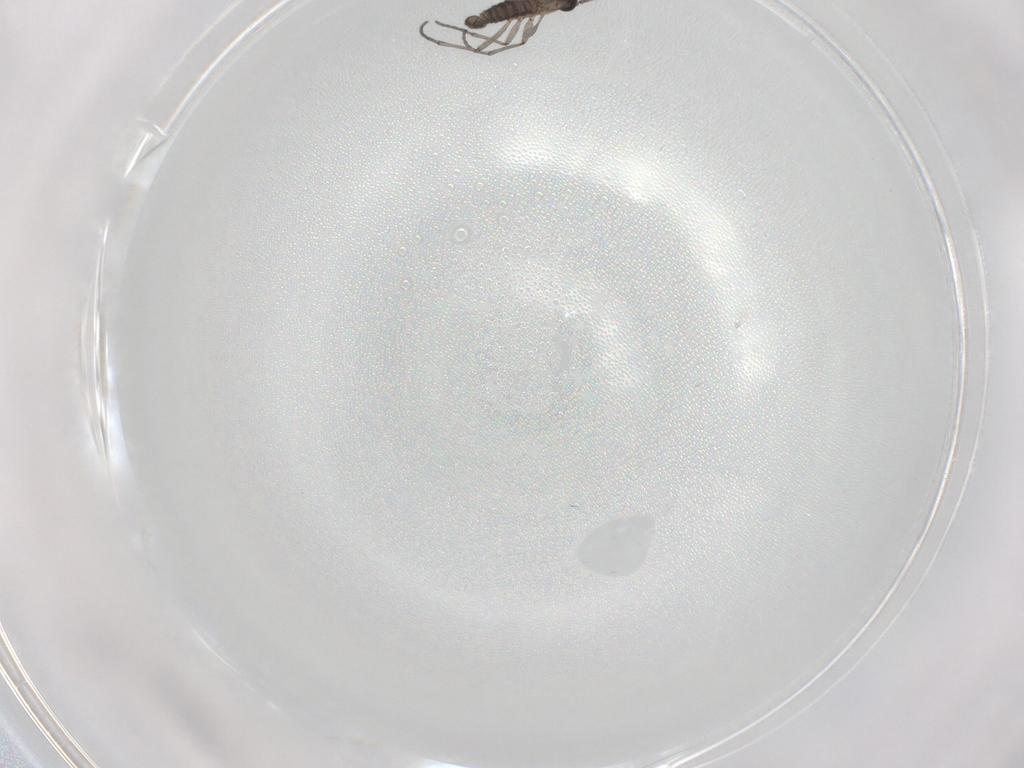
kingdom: Animalia
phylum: Arthropoda
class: Insecta
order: Diptera
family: Sciaridae
